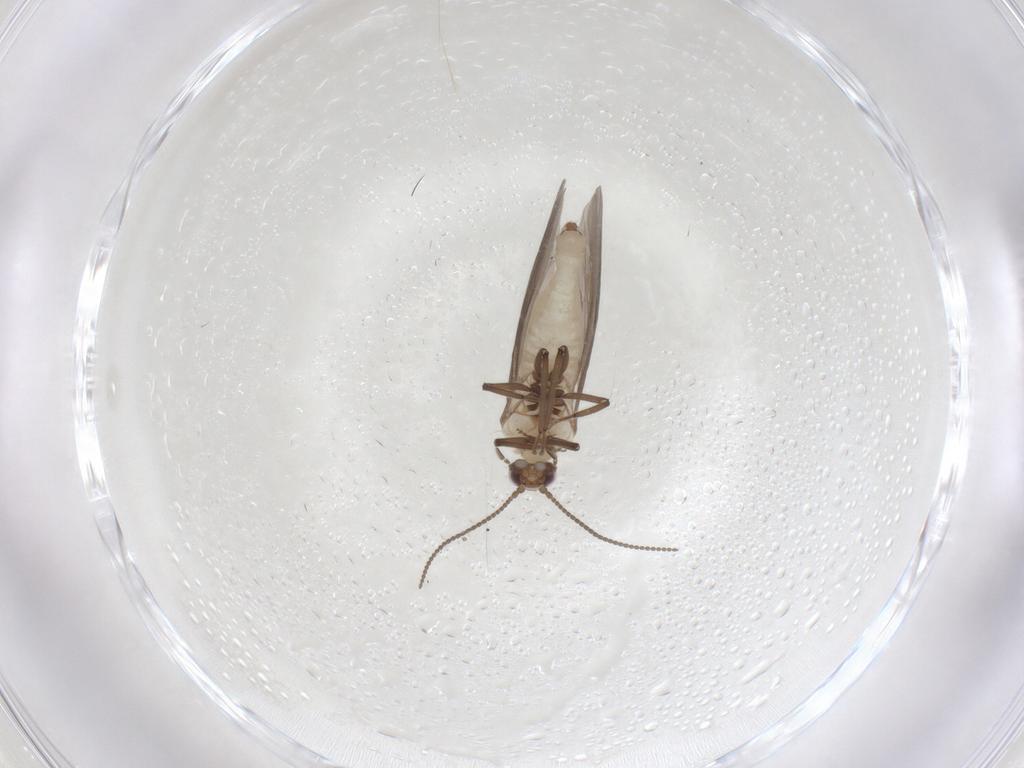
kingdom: Animalia
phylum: Arthropoda
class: Insecta
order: Neuroptera
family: Coniopterygidae
